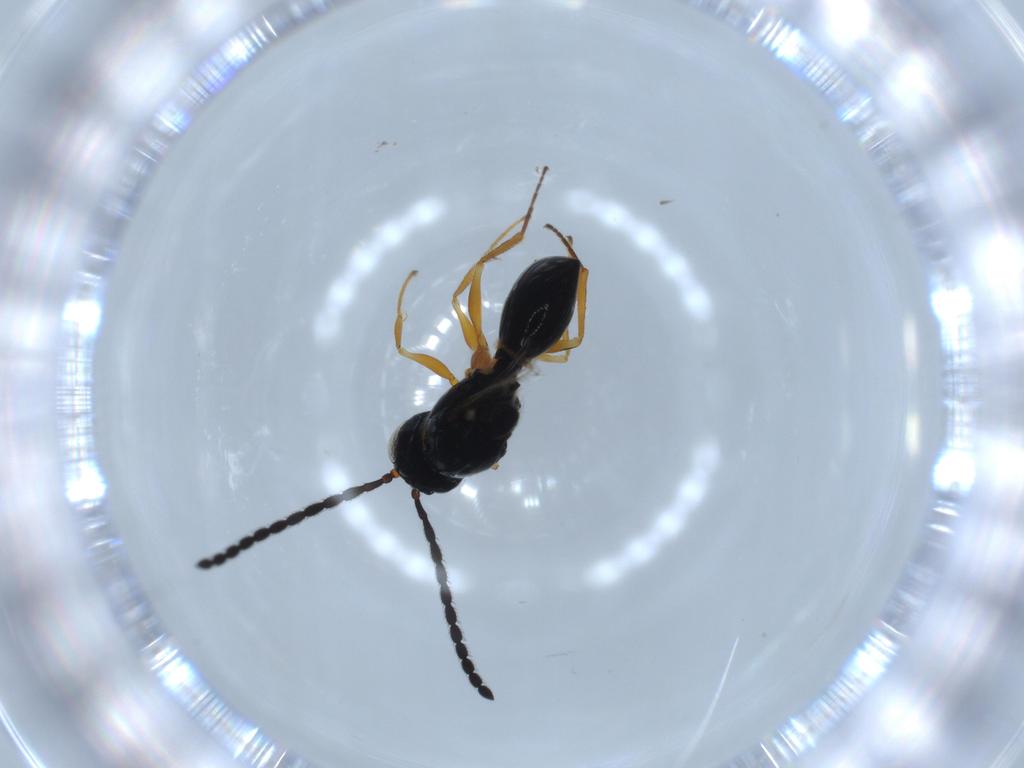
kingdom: Animalia
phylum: Arthropoda
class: Insecta
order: Hymenoptera
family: Figitidae
